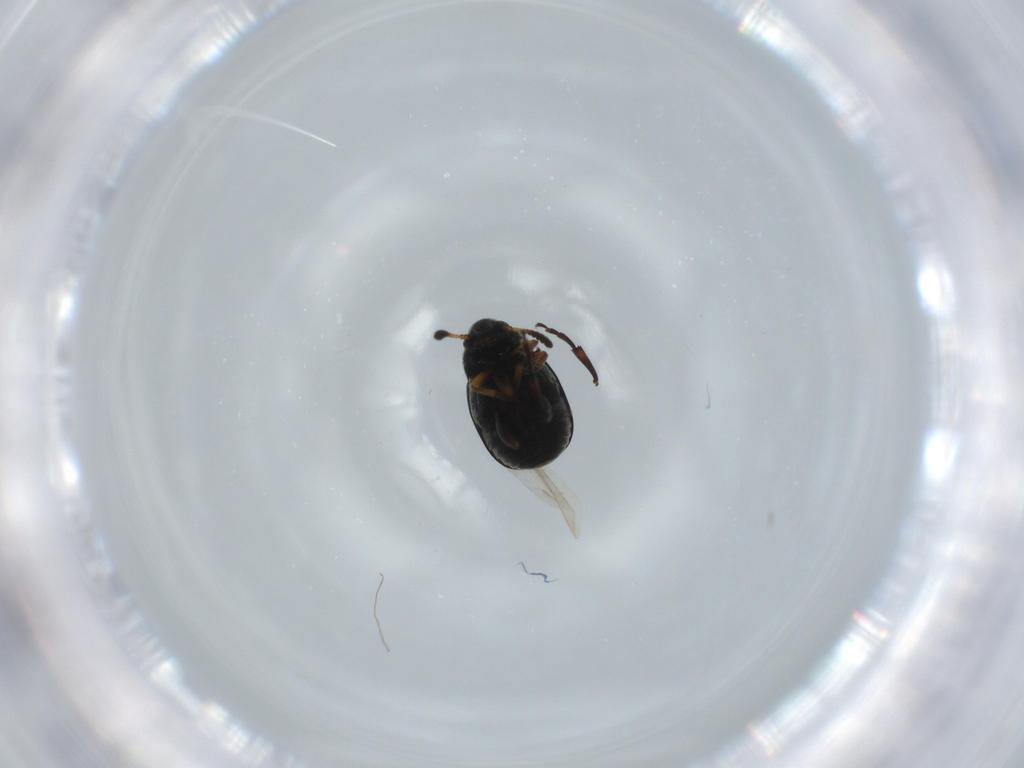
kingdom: Animalia
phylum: Arthropoda
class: Insecta
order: Coleoptera
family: Chrysomelidae
